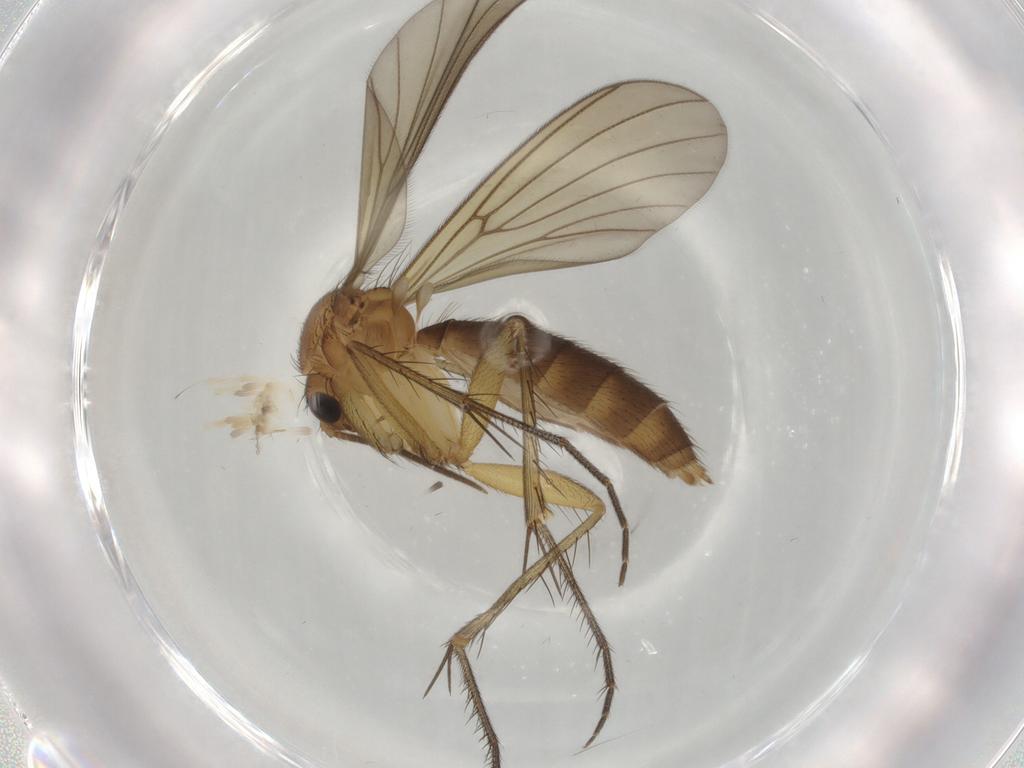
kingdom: Animalia
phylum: Arthropoda
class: Insecta
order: Diptera
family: Mycetophilidae
